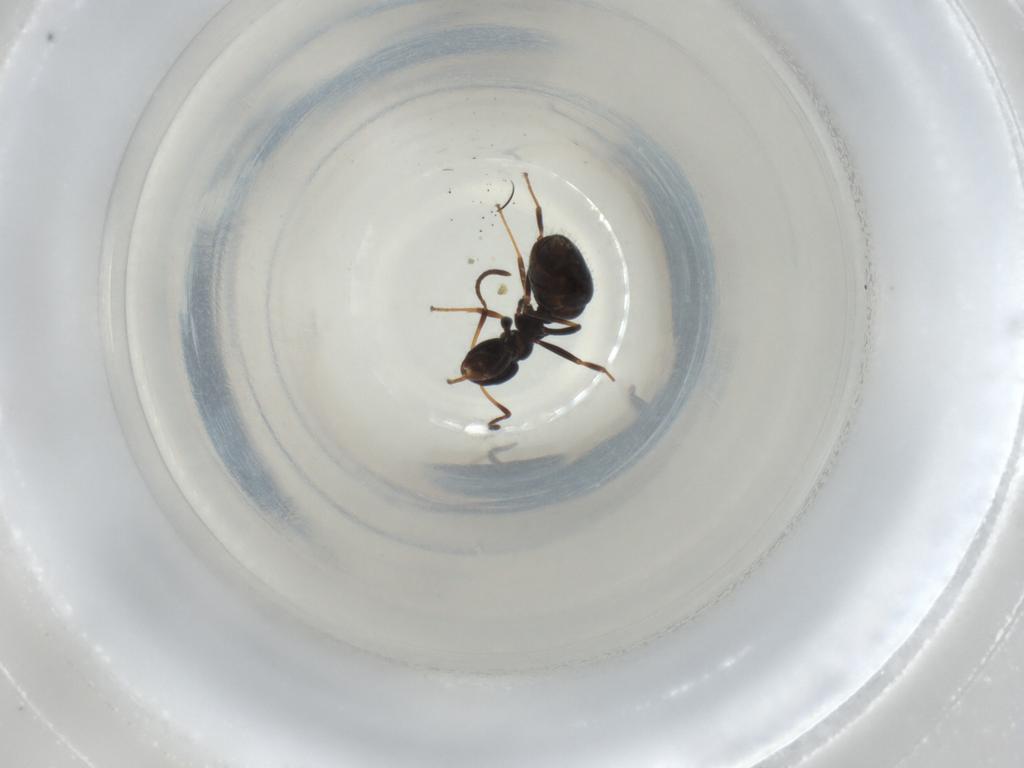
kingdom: Animalia
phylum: Arthropoda
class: Insecta
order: Hymenoptera
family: Formicidae
